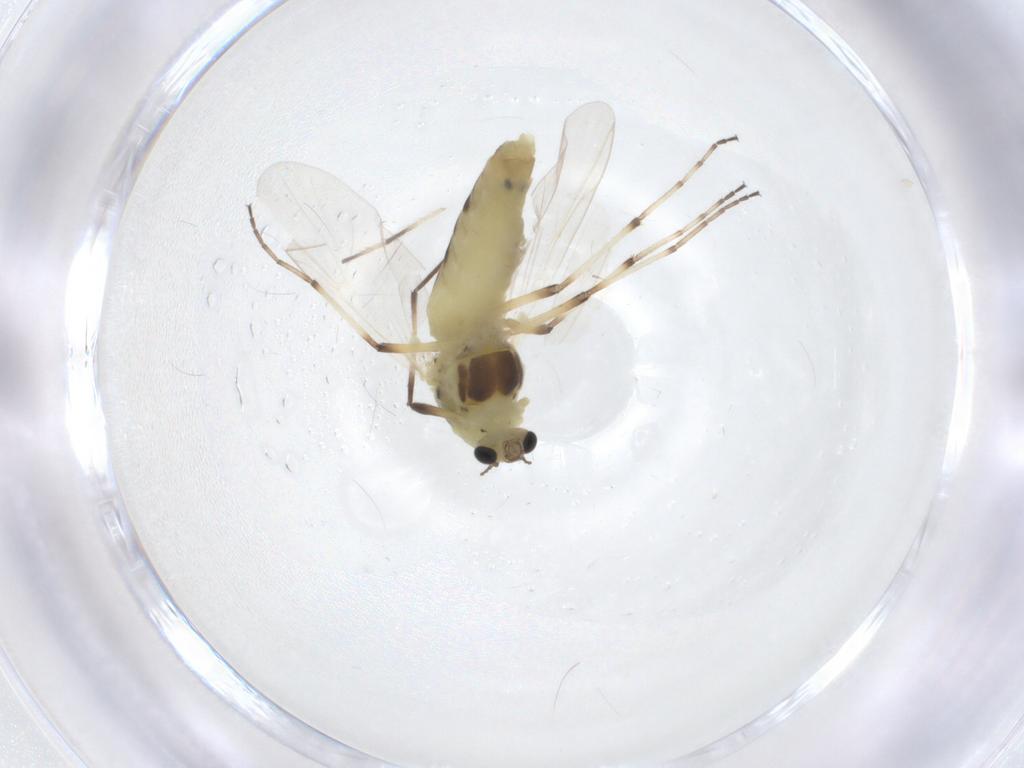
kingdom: Animalia
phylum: Arthropoda
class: Insecta
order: Diptera
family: Chironomidae
